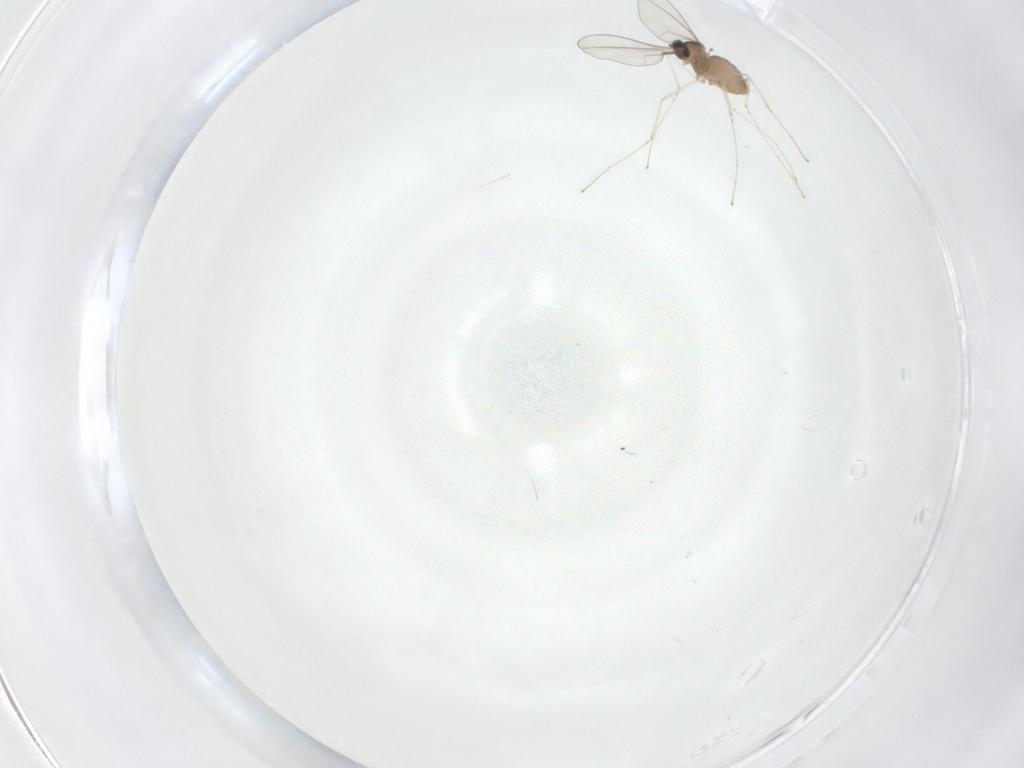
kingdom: Animalia
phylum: Arthropoda
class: Insecta
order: Diptera
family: Cecidomyiidae
